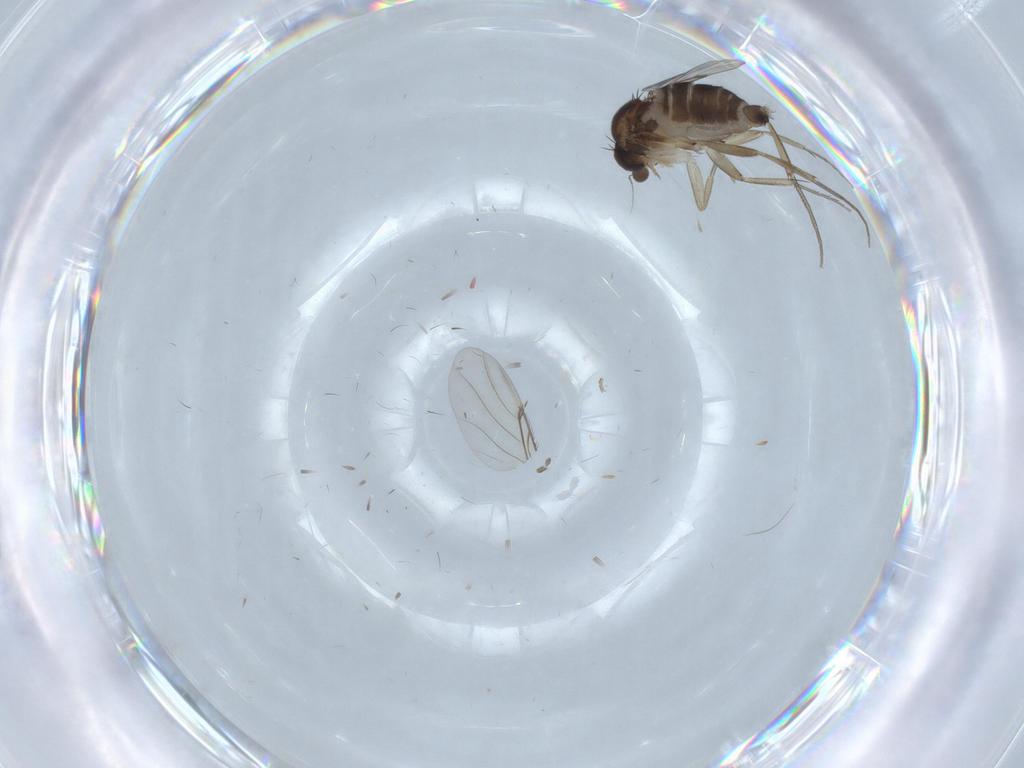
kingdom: Animalia
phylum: Arthropoda
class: Insecta
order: Diptera
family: Phoridae
